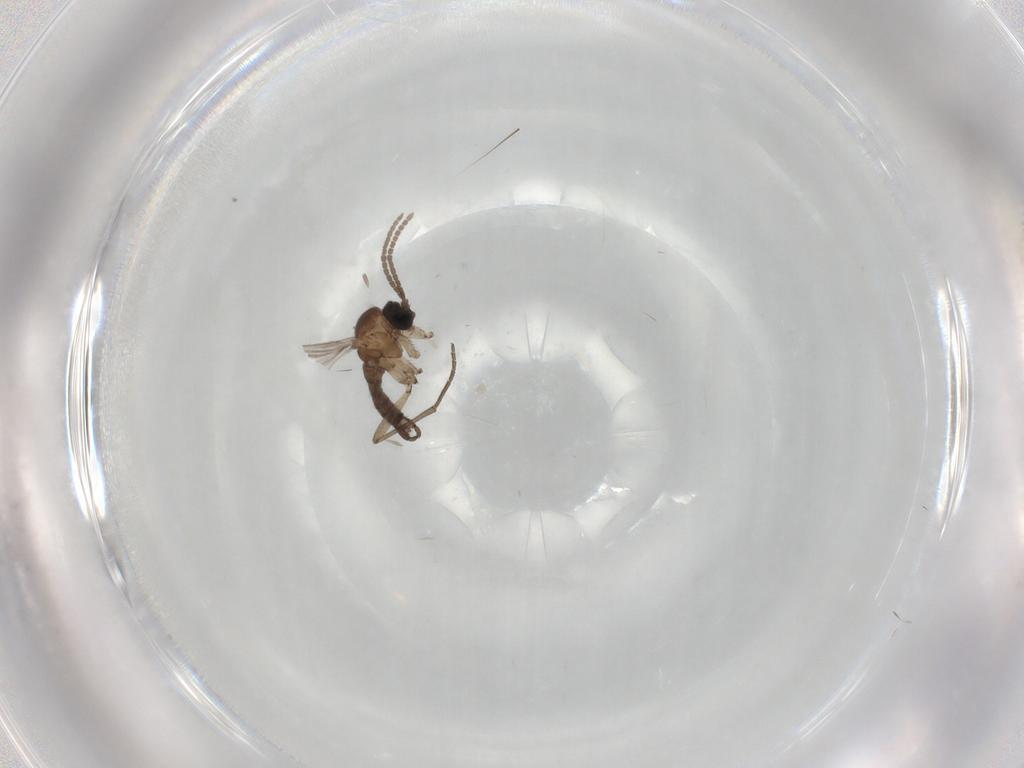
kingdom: Animalia
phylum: Arthropoda
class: Insecta
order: Diptera
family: Sciaridae
